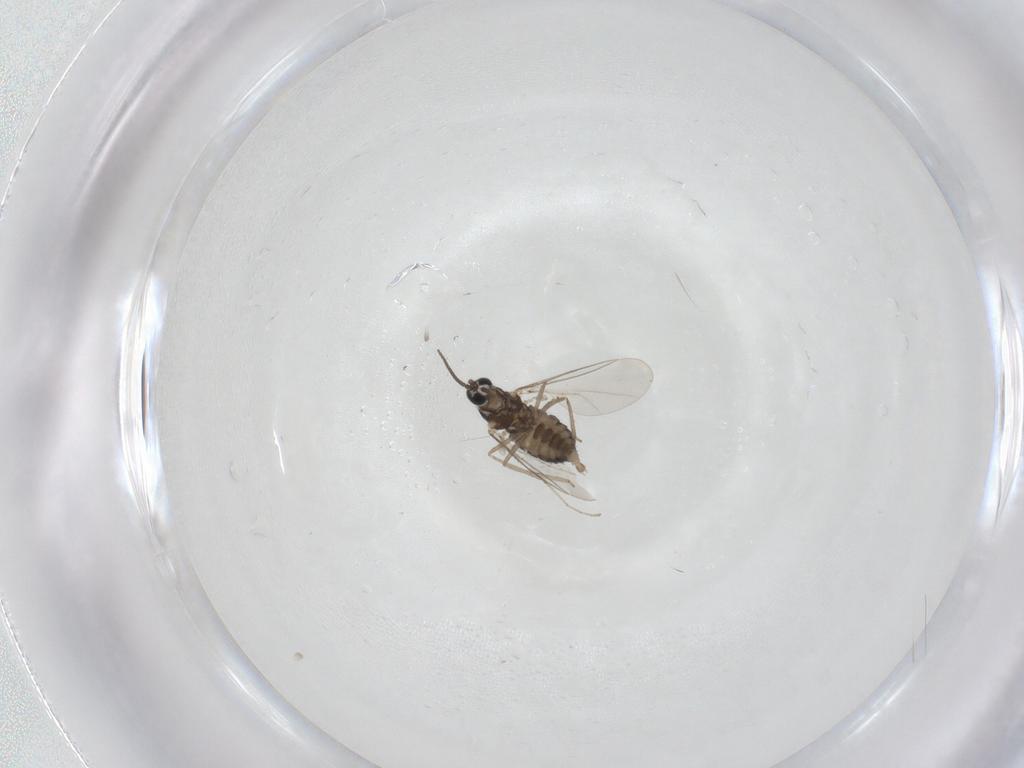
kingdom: Animalia
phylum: Arthropoda
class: Insecta
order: Diptera
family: Cecidomyiidae
